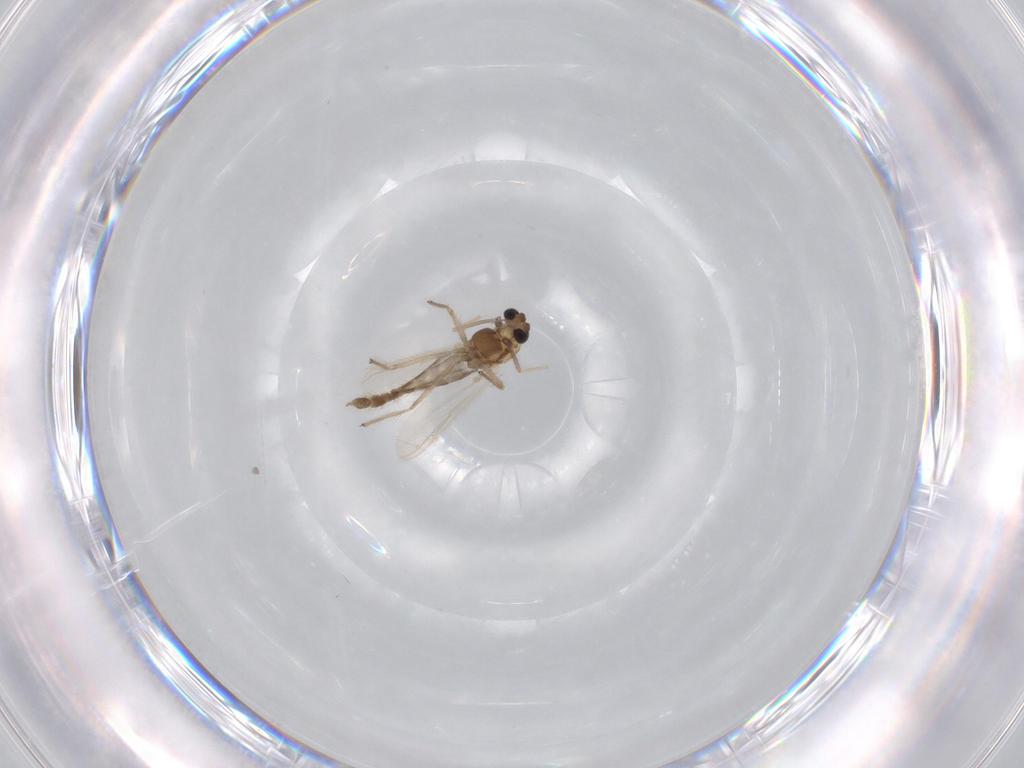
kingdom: Animalia
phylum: Arthropoda
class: Insecta
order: Diptera
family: Chironomidae
